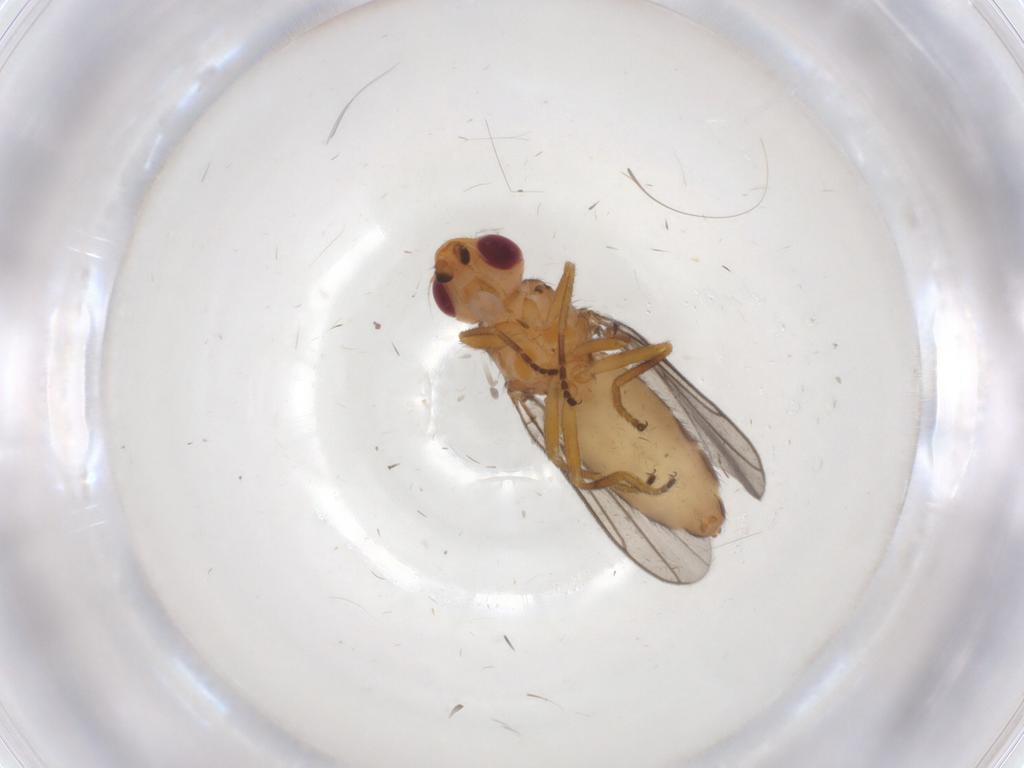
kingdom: Animalia
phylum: Arthropoda
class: Insecta
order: Diptera
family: Chloropidae
